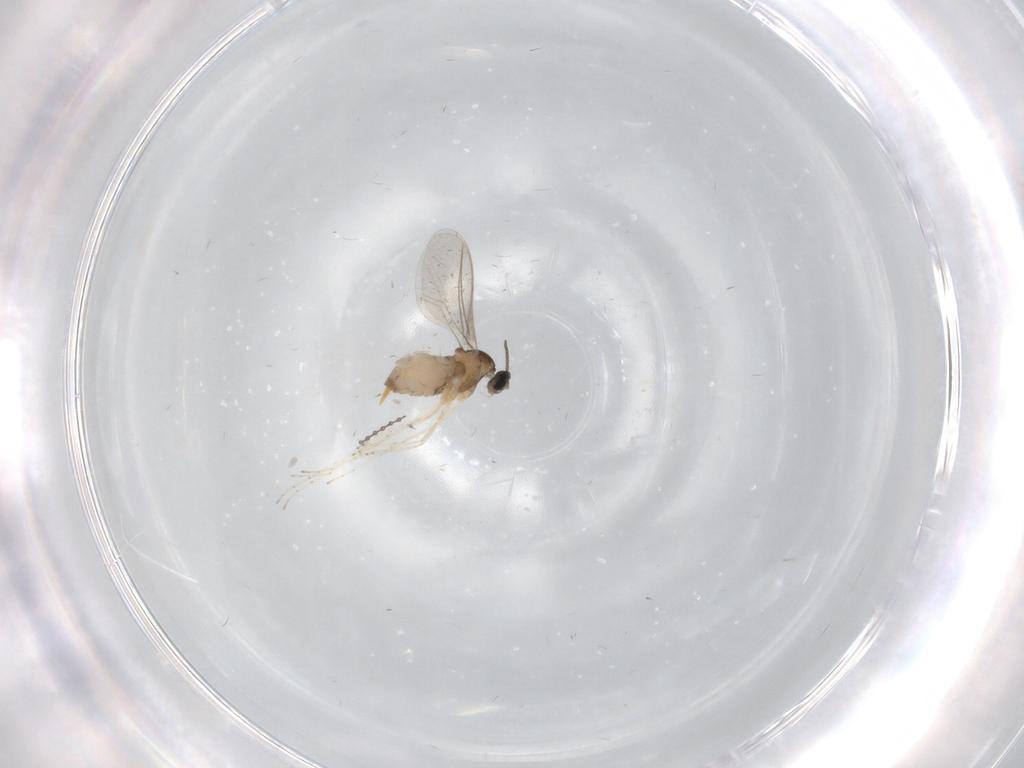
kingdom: Animalia
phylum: Arthropoda
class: Insecta
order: Diptera
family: Cecidomyiidae
